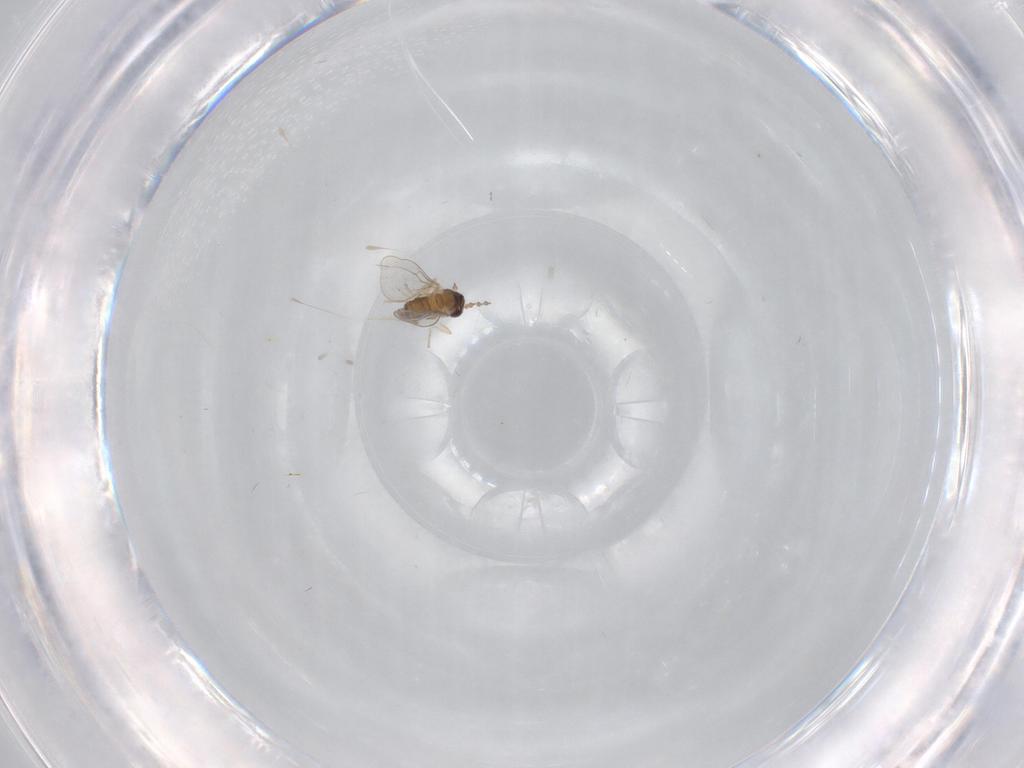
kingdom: Animalia
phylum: Arthropoda
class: Insecta
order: Diptera
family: Cecidomyiidae
